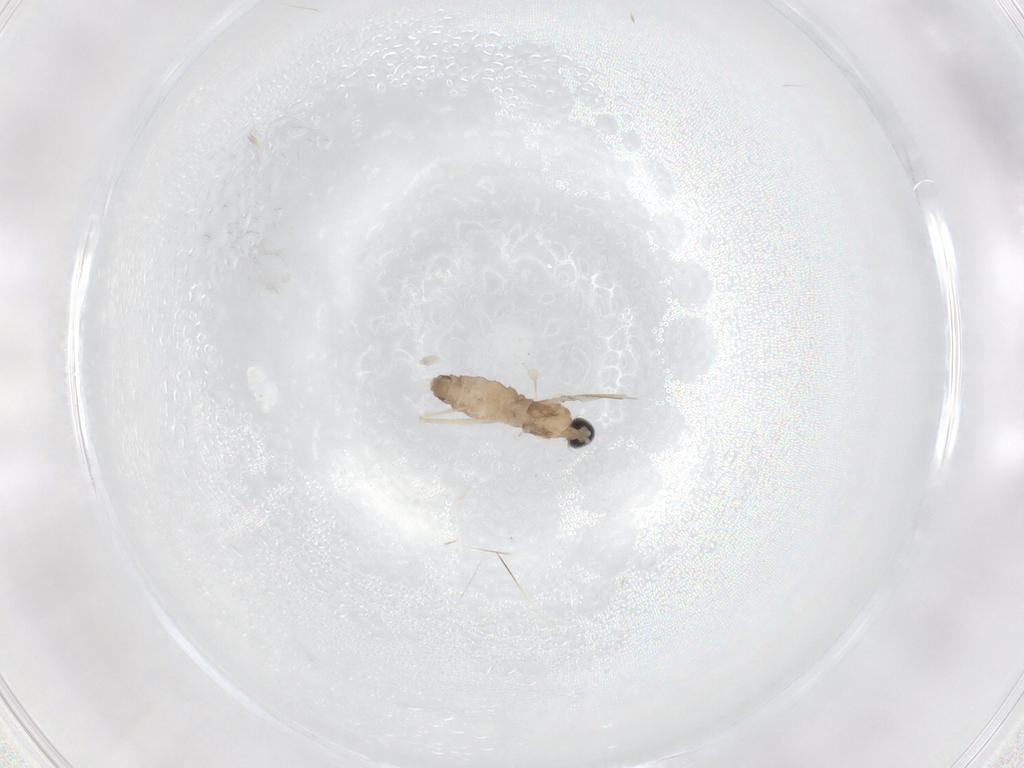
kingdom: Animalia
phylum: Arthropoda
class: Insecta
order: Diptera
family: Cecidomyiidae
